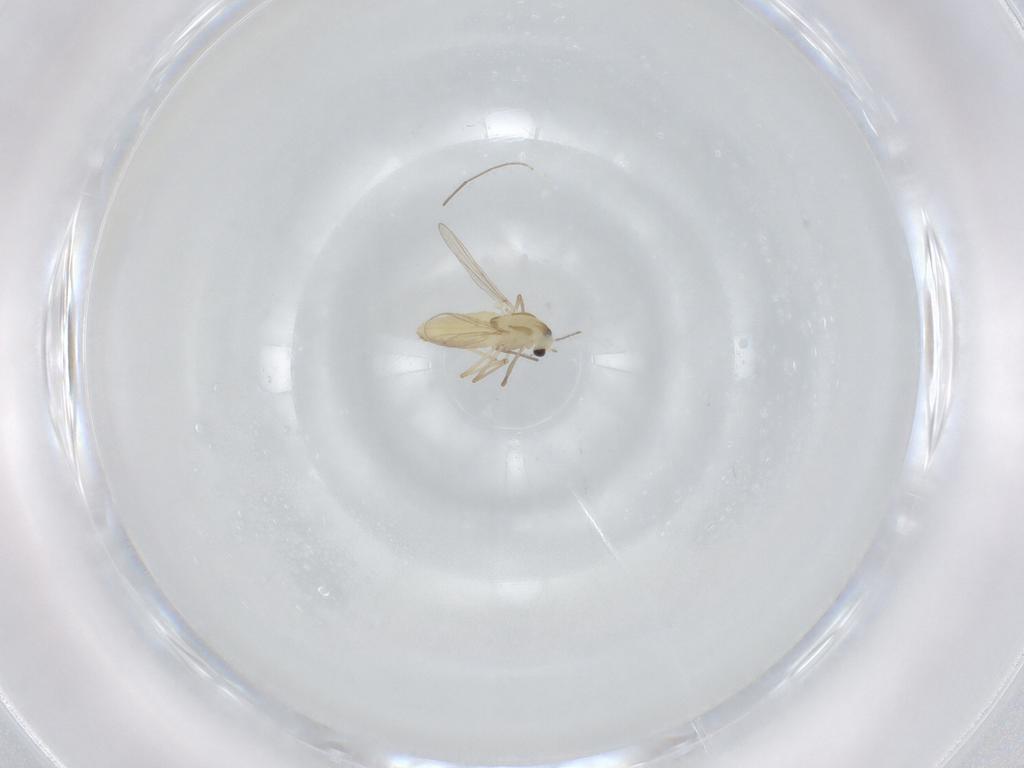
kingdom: Animalia
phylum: Arthropoda
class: Insecta
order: Diptera
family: Chironomidae
